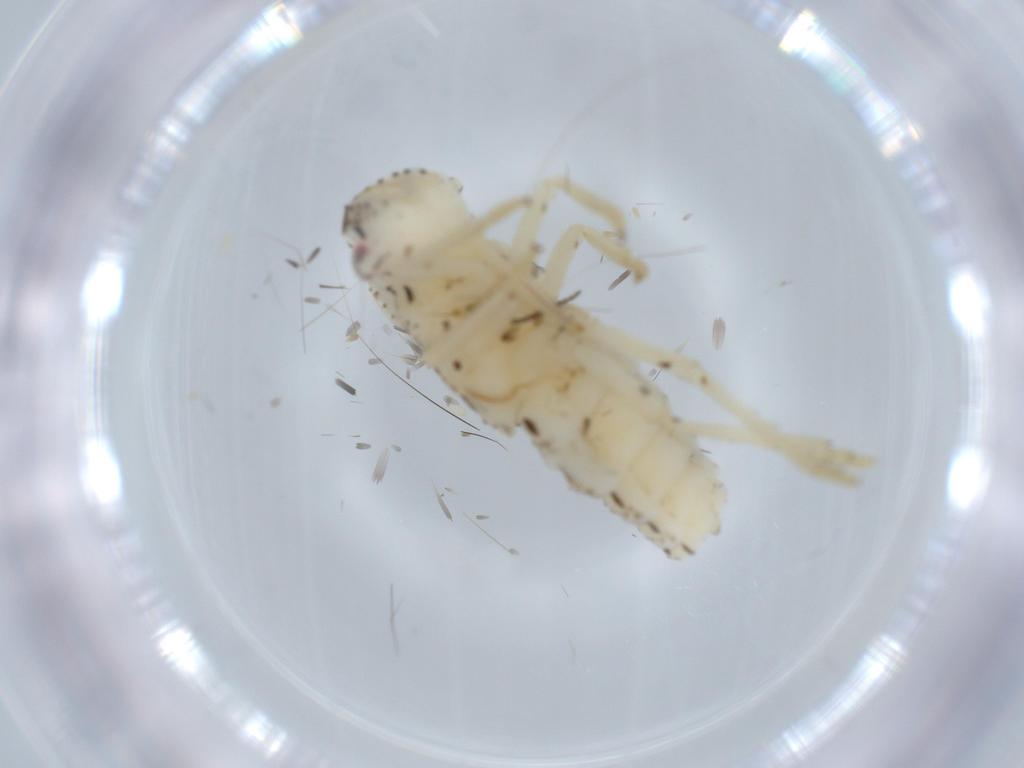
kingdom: Animalia
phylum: Arthropoda
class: Insecta
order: Hemiptera
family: Fulgoroidea_incertae_sedis
